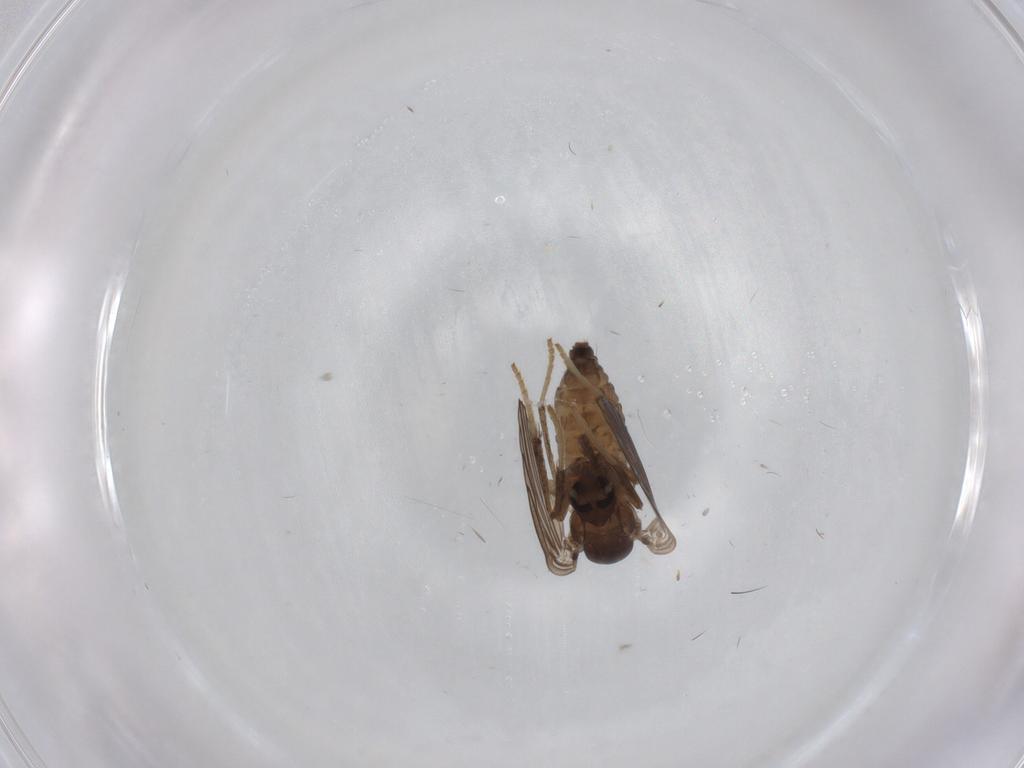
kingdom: Animalia
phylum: Arthropoda
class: Insecta
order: Diptera
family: Psychodidae
